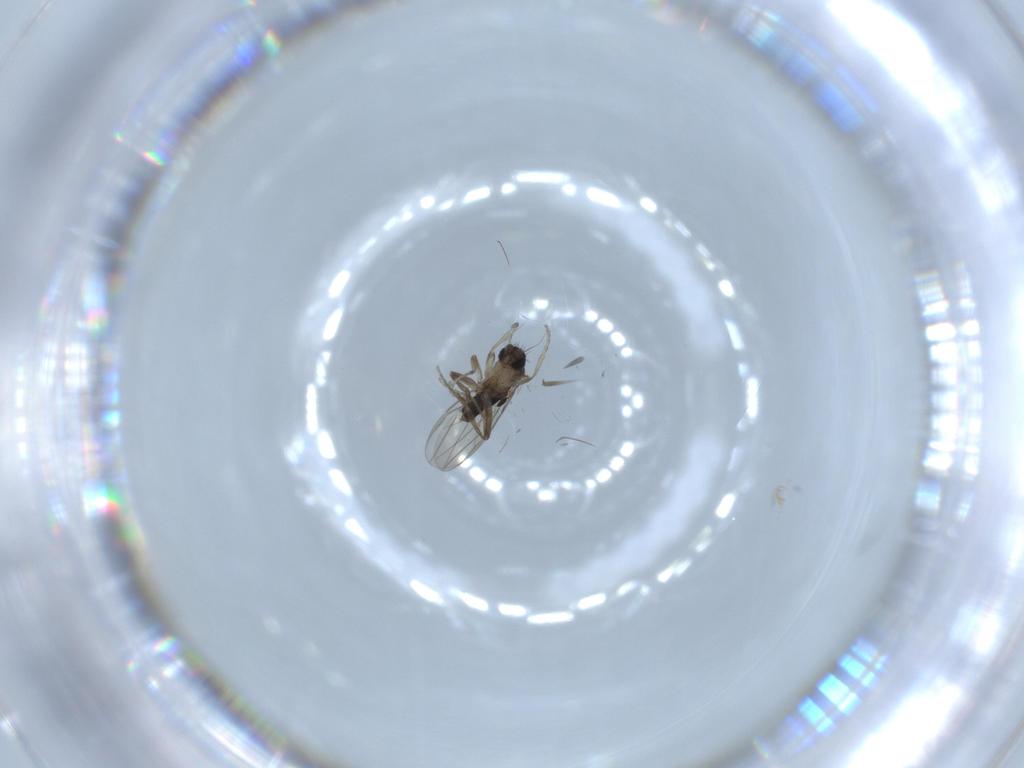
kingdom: Animalia
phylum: Arthropoda
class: Insecta
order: Diptera
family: Phoridae
